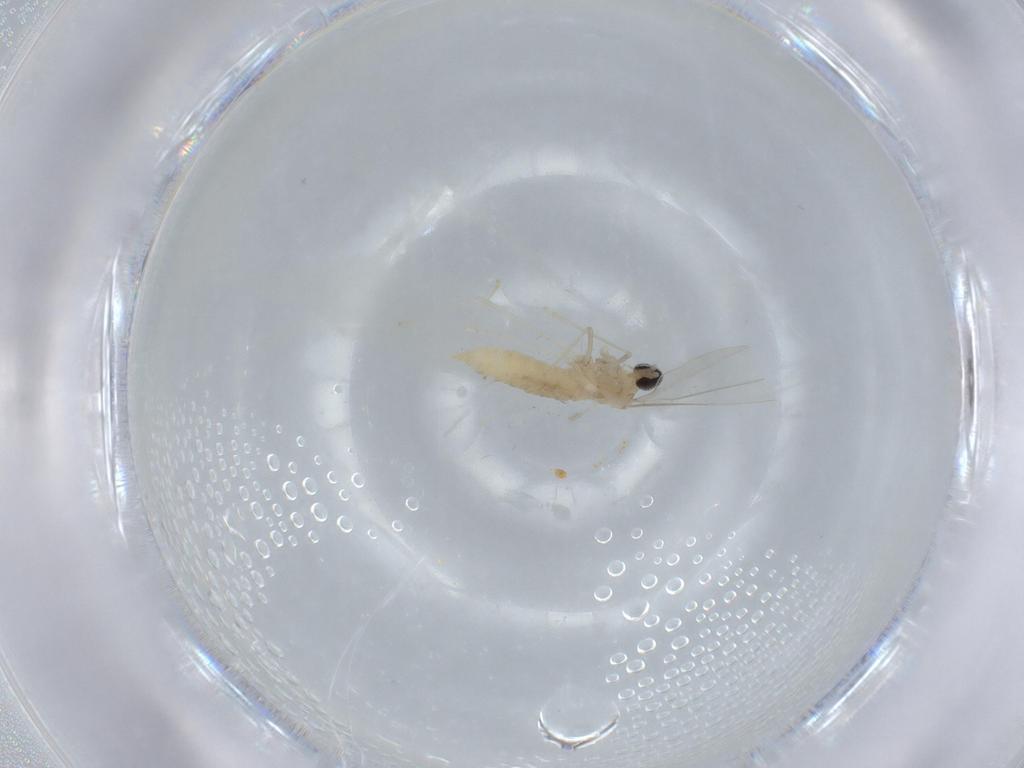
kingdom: Animalia
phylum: Arthropoda
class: Insecta
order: Diptera
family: Cecidomyiidae
